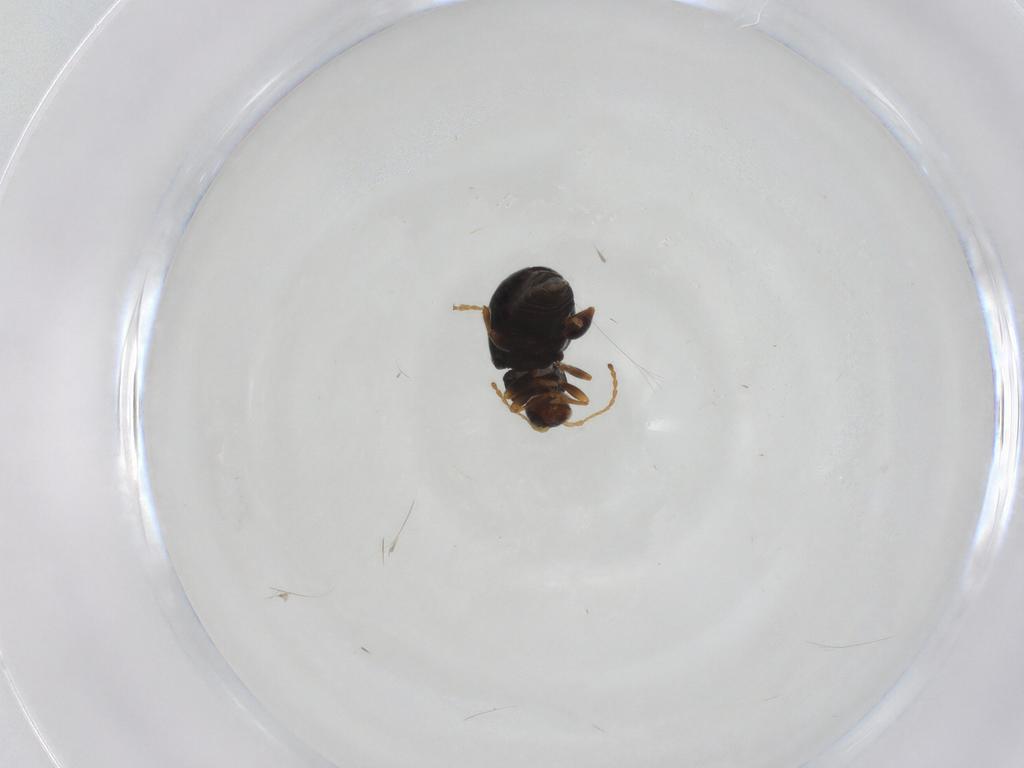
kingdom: Animalia
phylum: Arthropoda
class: Insecta
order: Coleoptera
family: Chrysomelidae
